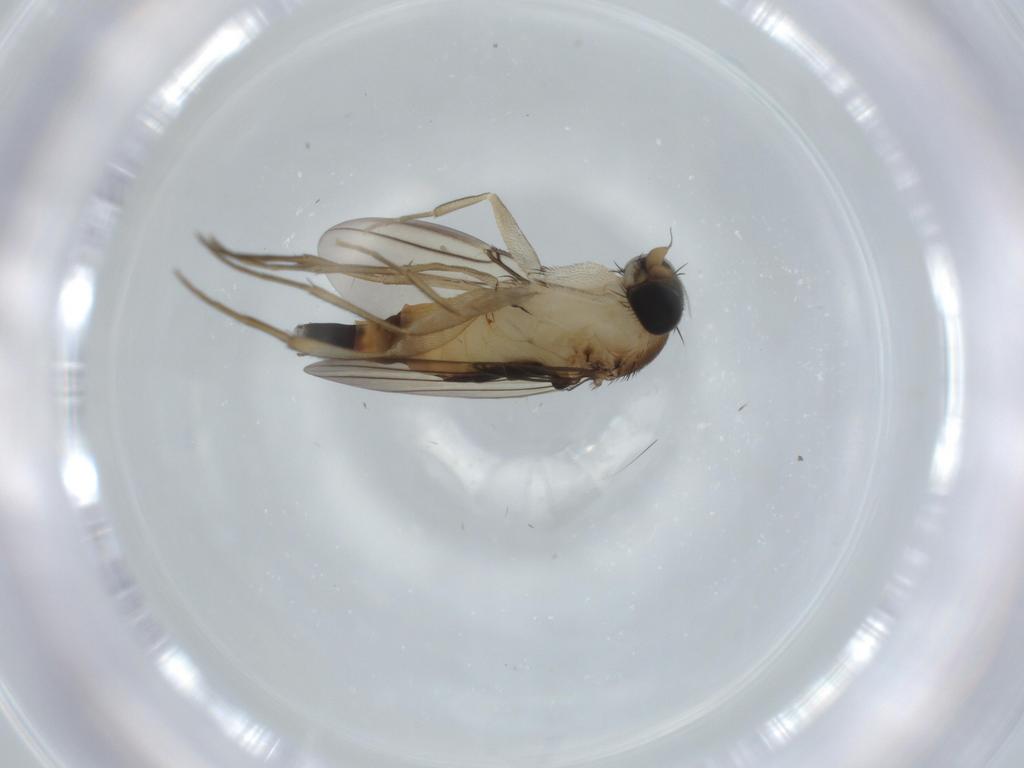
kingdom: Animalia
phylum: Arthropoda
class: Insecta
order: Diptera
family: Phoridae
